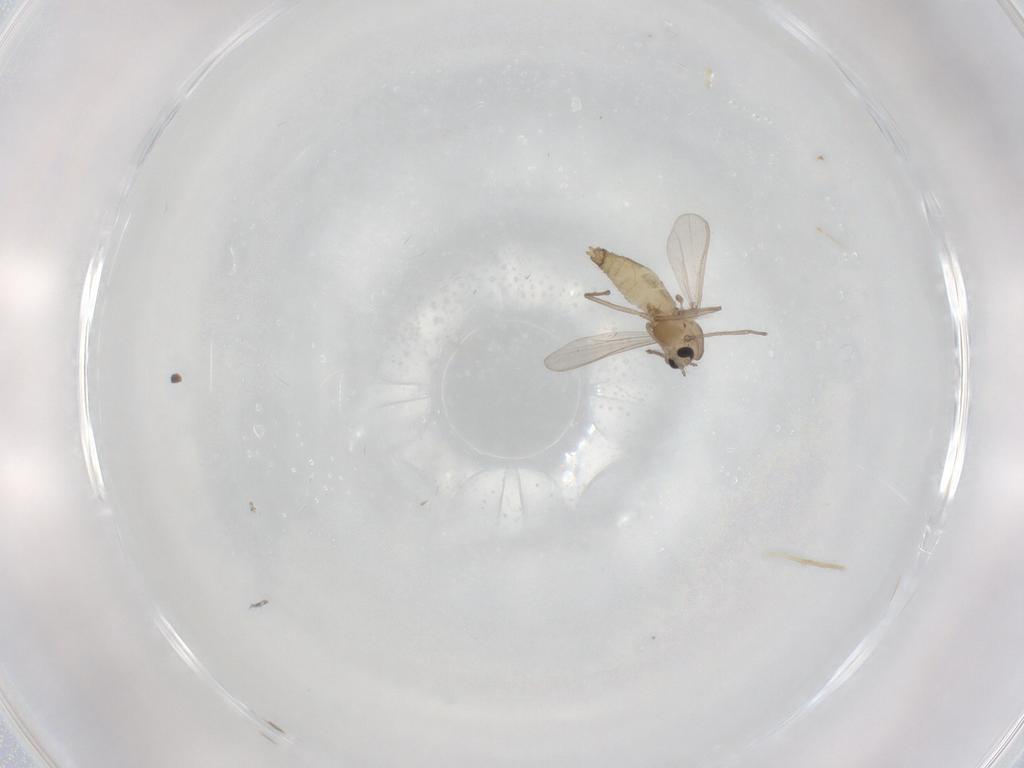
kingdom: Animalia
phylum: Arthropoda
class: Insecta
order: Diptera
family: Chironomidae
